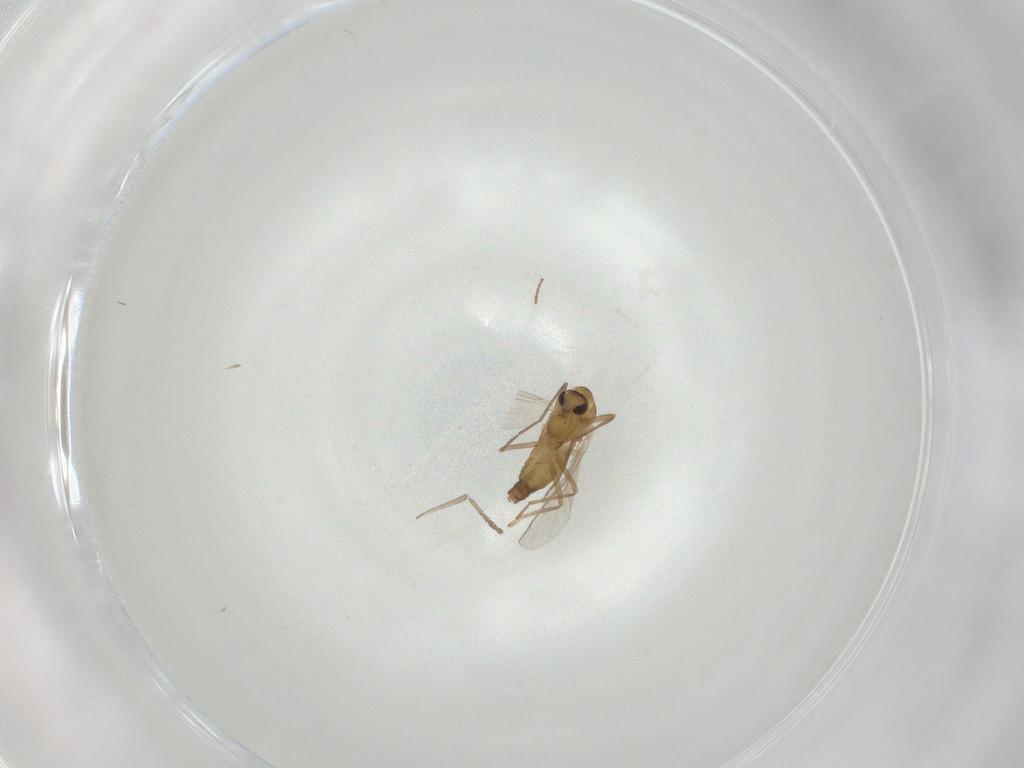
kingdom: Animalia
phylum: Arthropoda
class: Insecta
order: Diptera
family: Chironomidae
